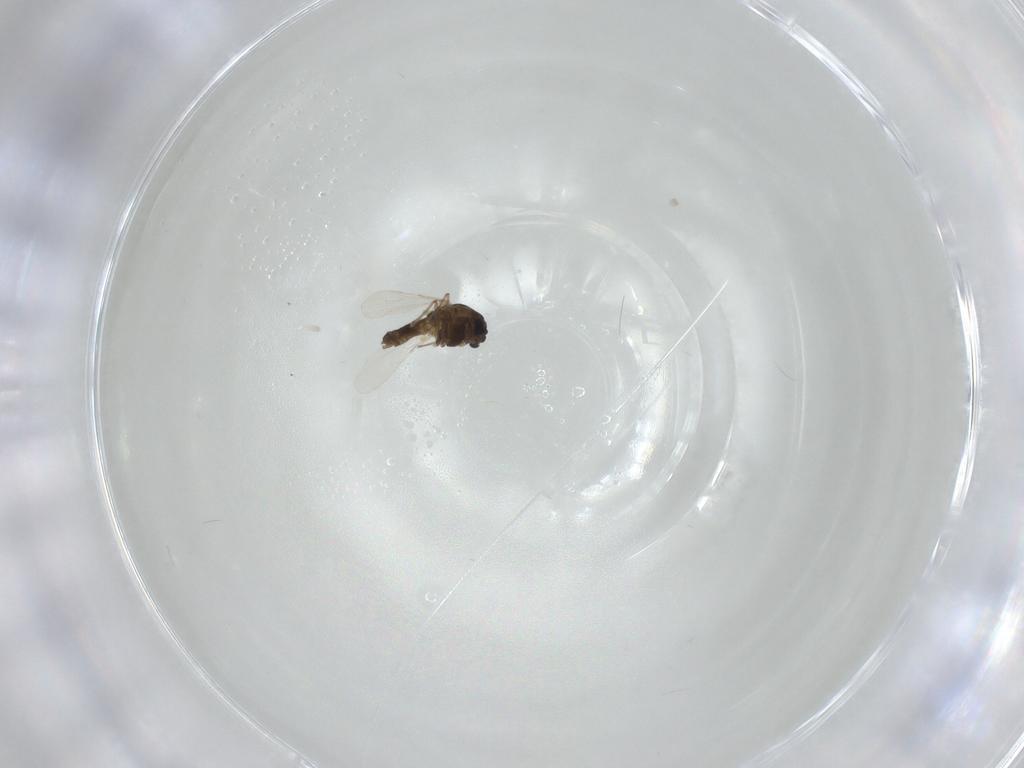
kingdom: Animalia
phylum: Arthropoda
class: Insecta
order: Diptera
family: Chironomidae
